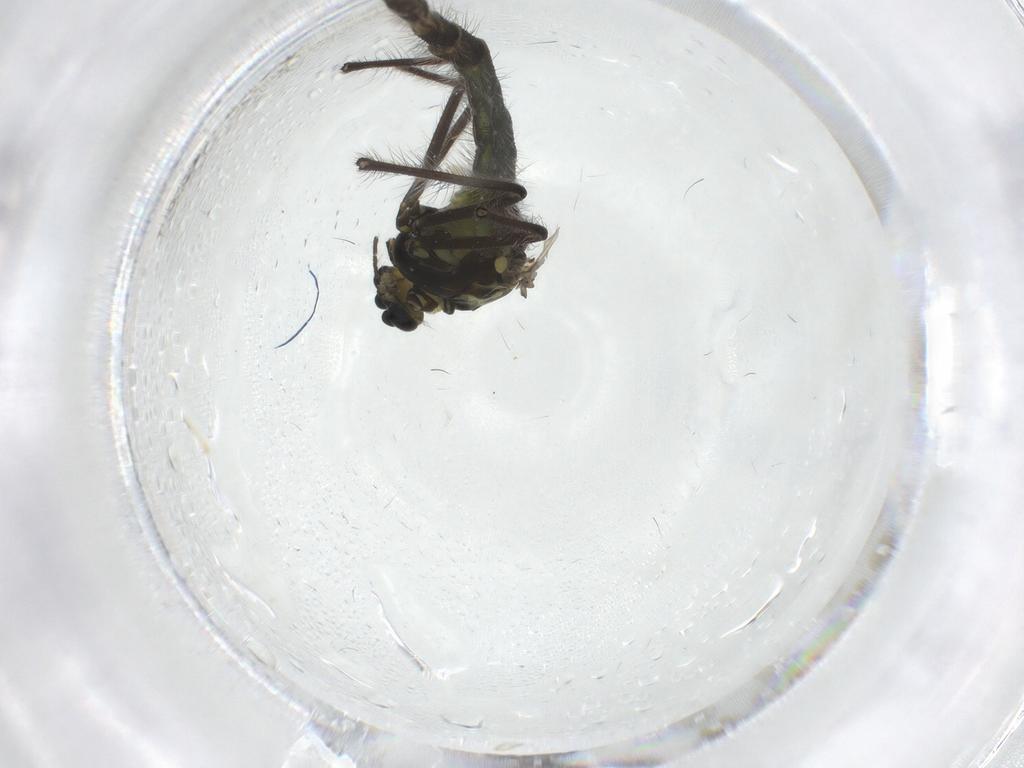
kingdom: Animalia
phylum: Arthropoda
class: Insecta
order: Diptera
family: Chironomidae
